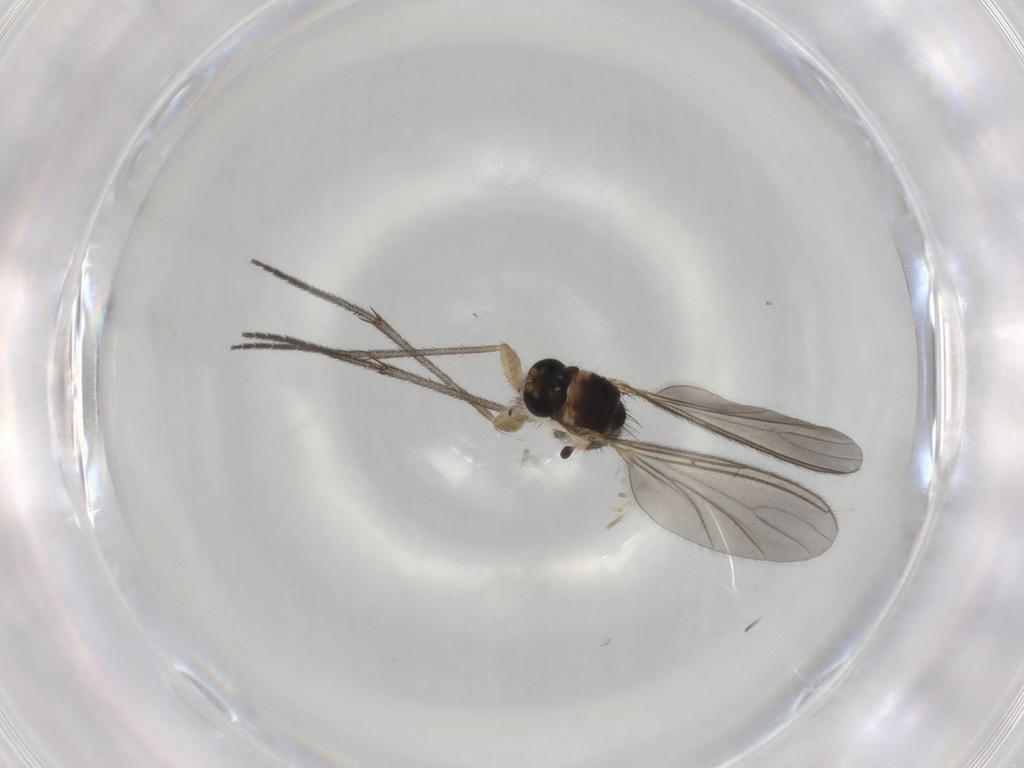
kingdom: Animalia
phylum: Arthropoda
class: Insecta
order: Diptera
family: Sciaridae
